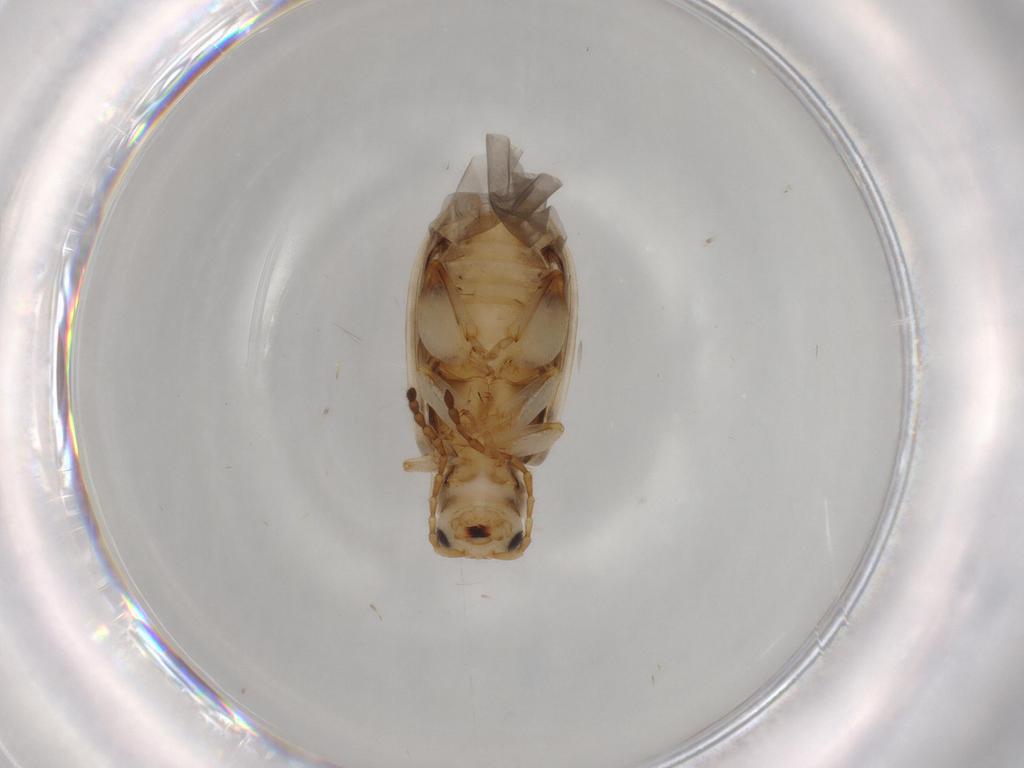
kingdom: Animalia
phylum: Arthropoda
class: Insecta
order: Coleoptera
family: Chrysomelidae
